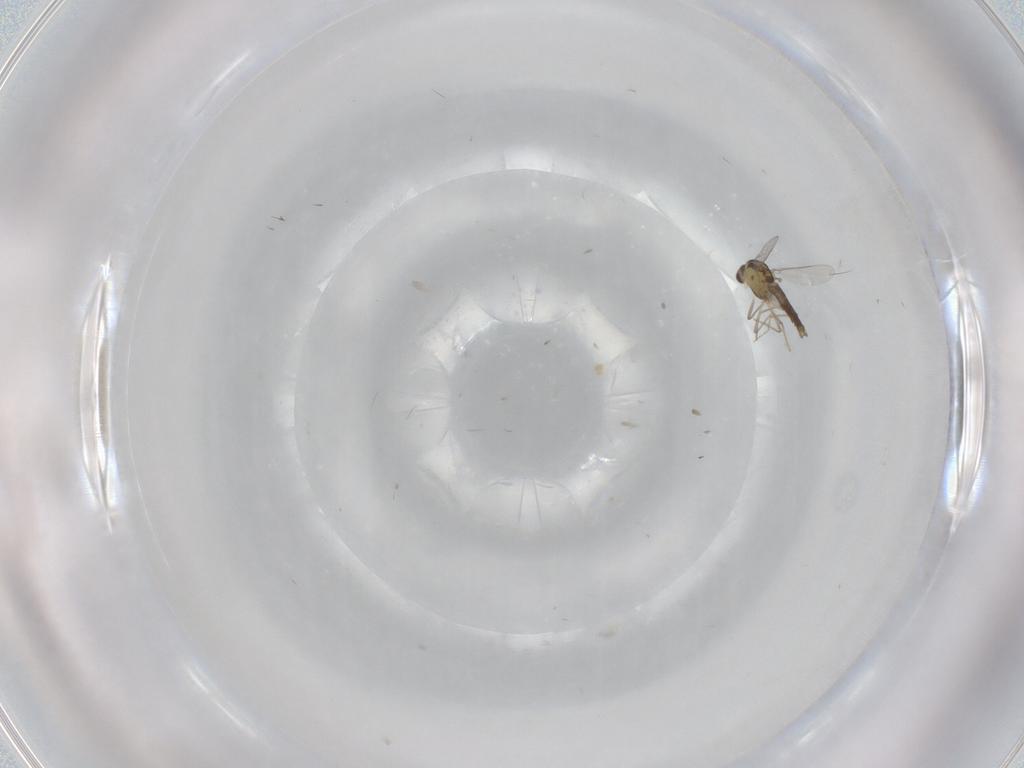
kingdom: Animalia
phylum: Arthropoda
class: Insecta
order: Diptera
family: Chironomidae
